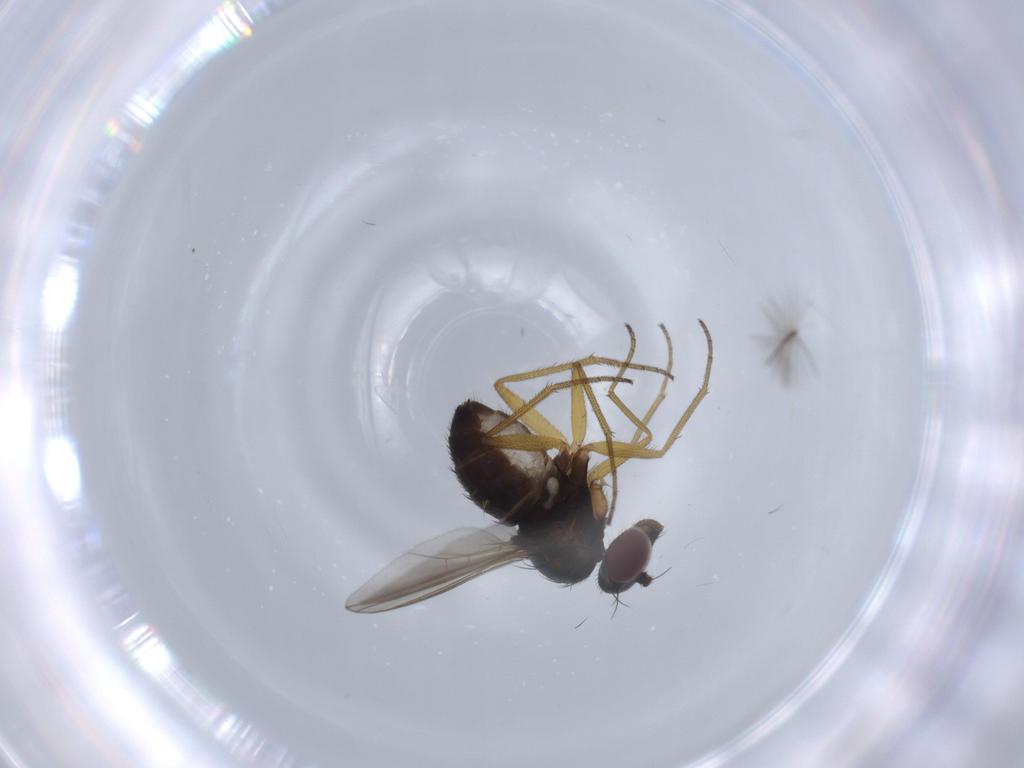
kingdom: Animalia
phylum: Arthropoda
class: Insecta
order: Diptera
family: Dolichopodidae
